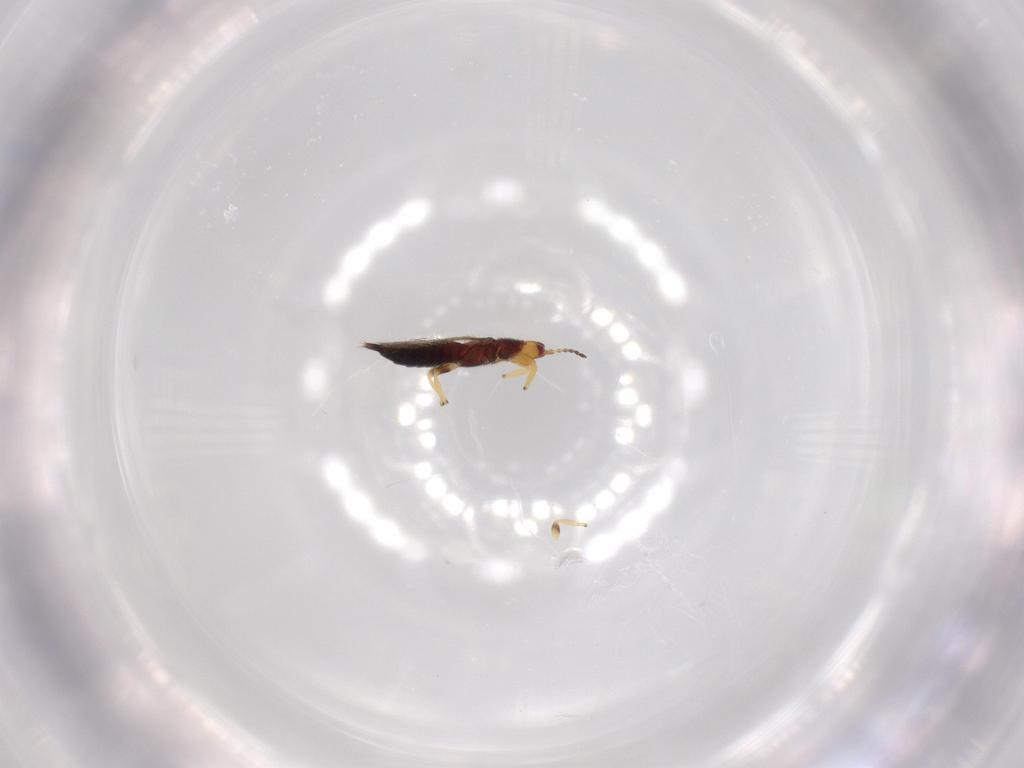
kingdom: Animalia
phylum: Arthropoda
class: Insecta
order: Thysanoptera
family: Phlaeothripidae
